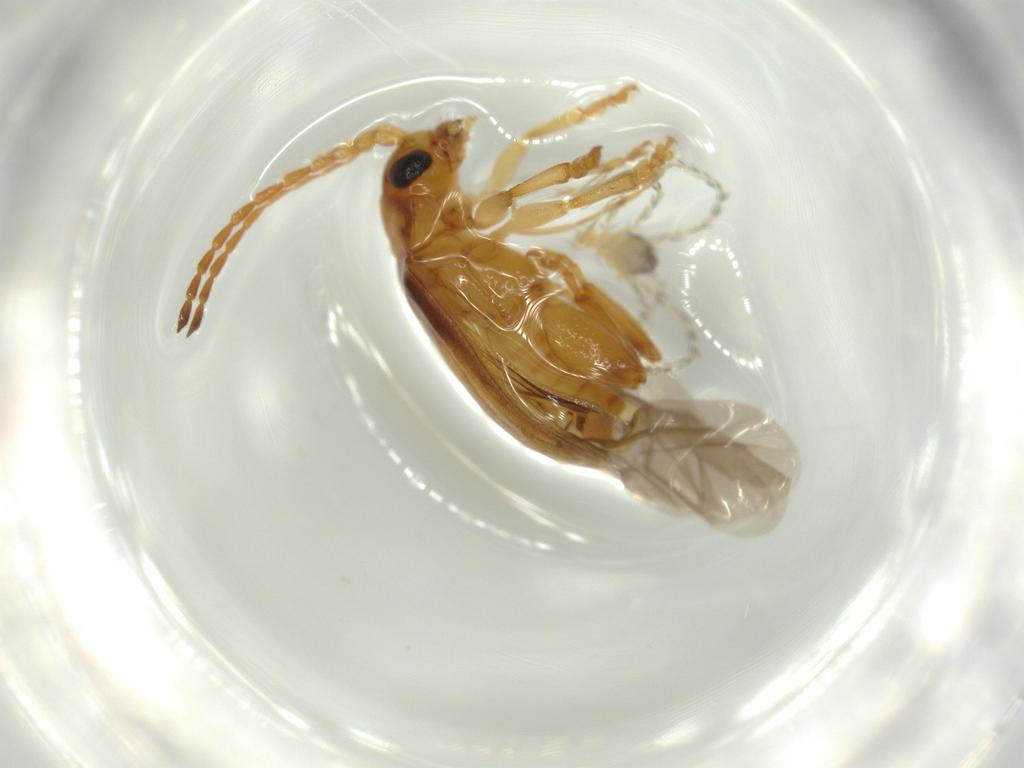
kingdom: Animalia
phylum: Arthropoda
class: Insecta
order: Coleoptera
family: Chrysomelidae
